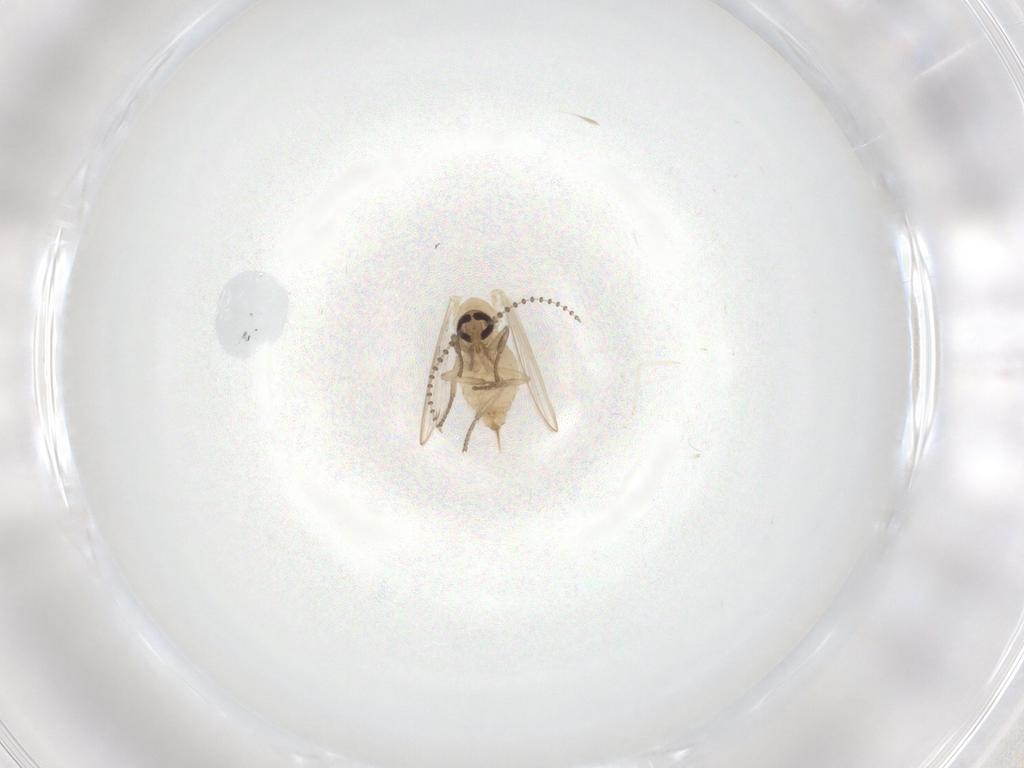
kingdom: Animalia
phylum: Arthropoda
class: Insecta
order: Diptera
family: Psychodidae
